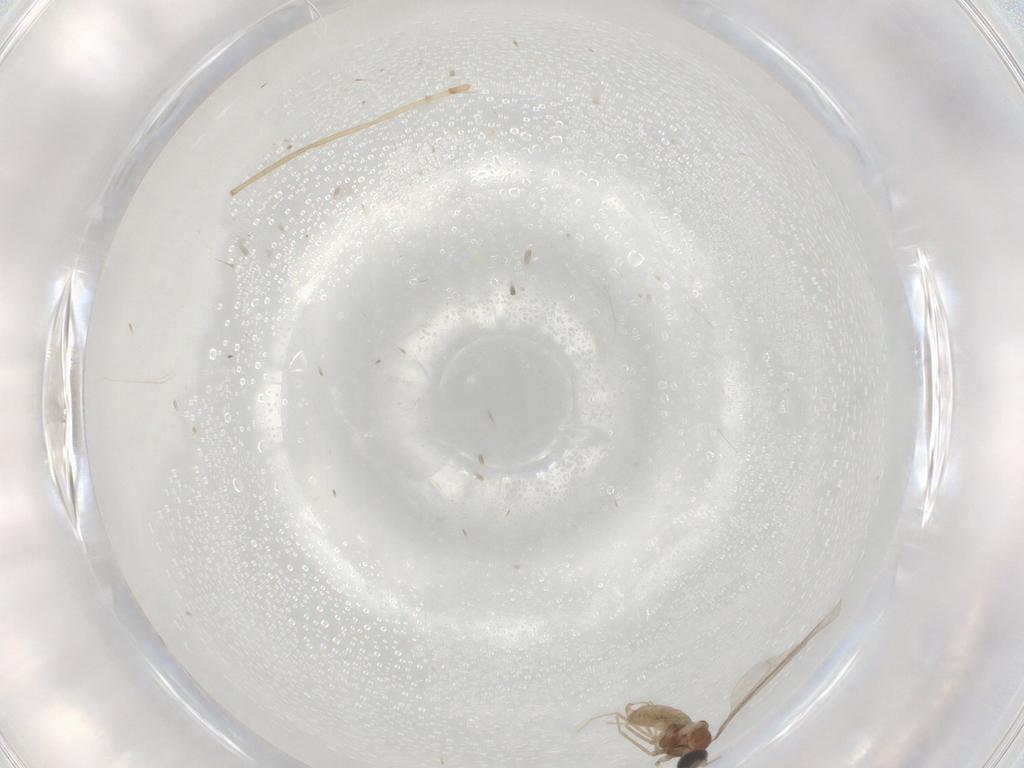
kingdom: Animalia
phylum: Arthropoda
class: Insecta
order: Diptera
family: Cecidomyiidae
